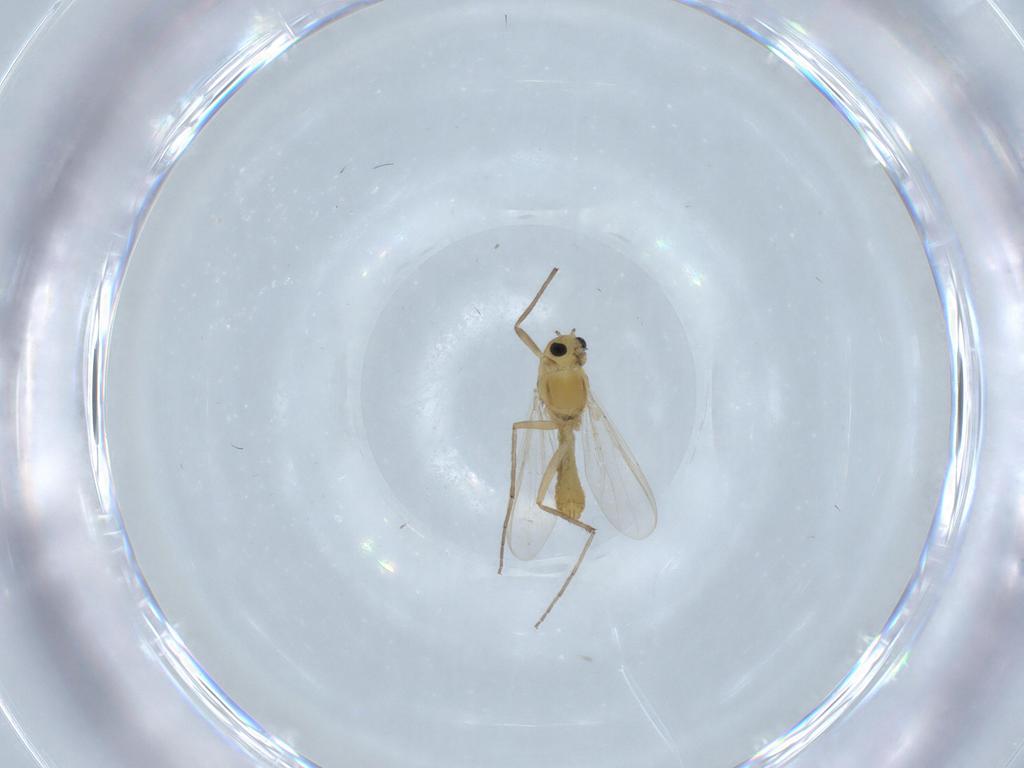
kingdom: Animalia
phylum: Arthropoda
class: Insecta
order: Diptera
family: Chironomidae
